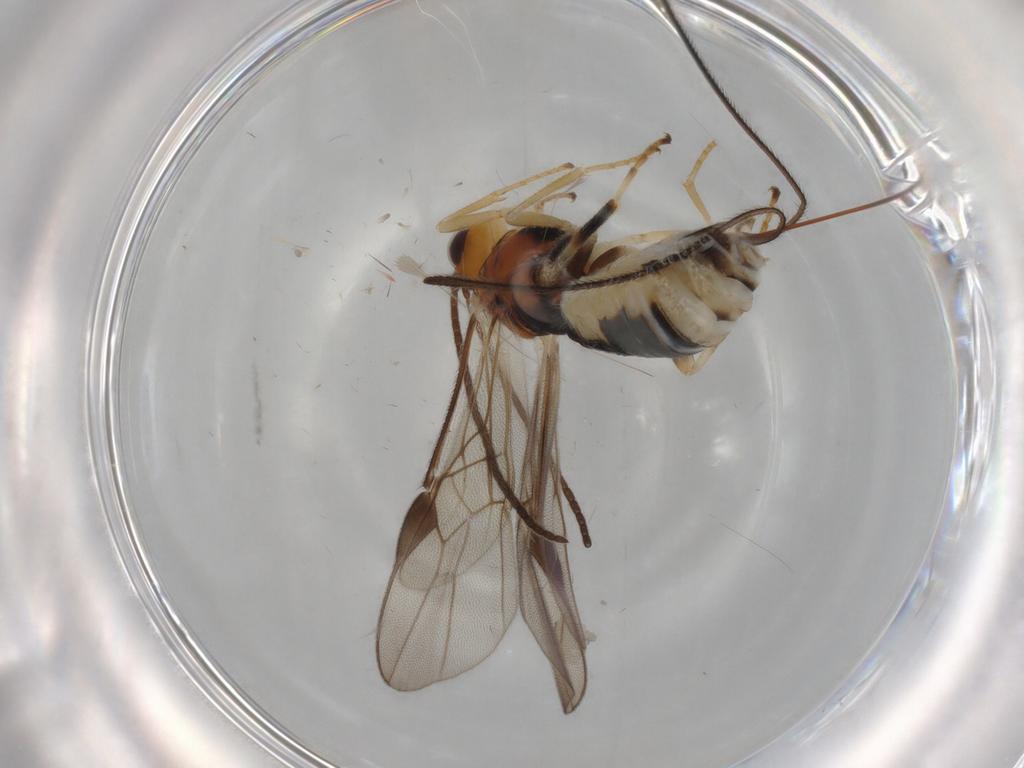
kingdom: Animalia
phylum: Arthropoda
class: Insecta
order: Hymenoptera
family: Braconidae
